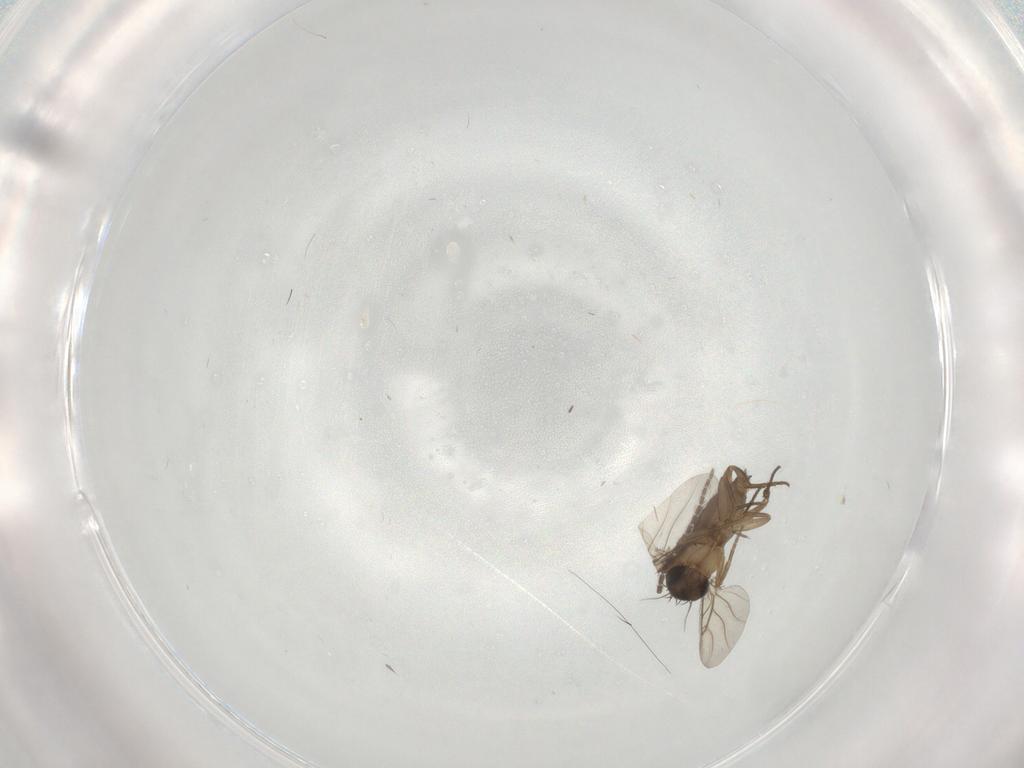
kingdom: Animalia
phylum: Arthropoda
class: Insecta
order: Diptera
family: Phoridae
